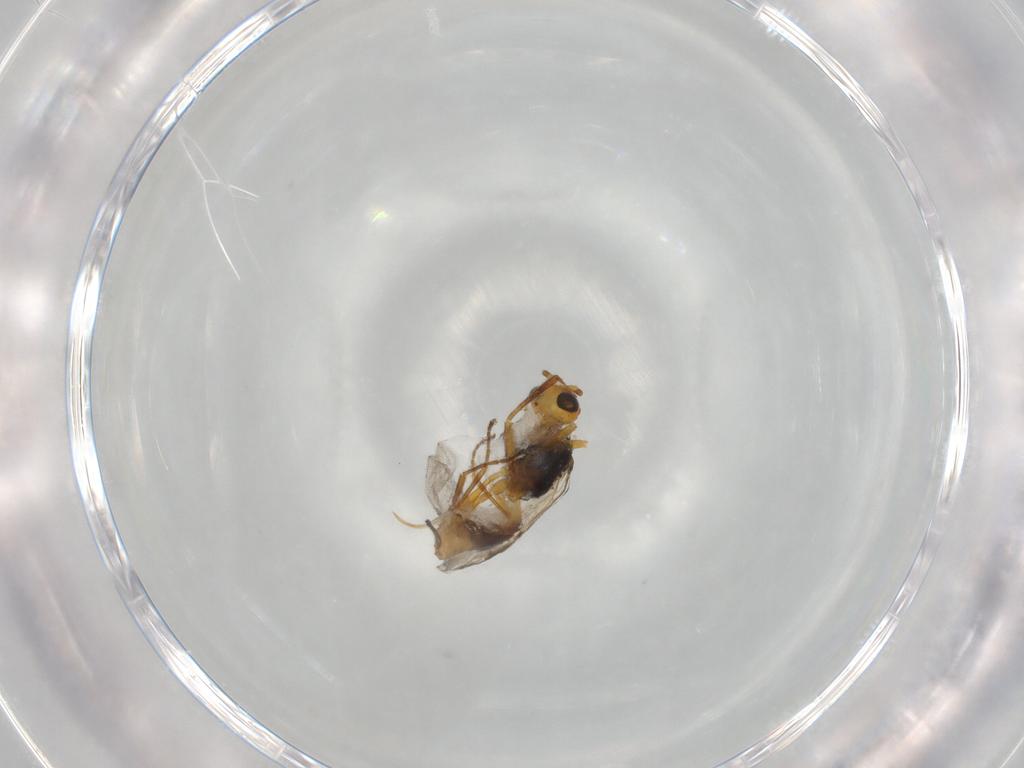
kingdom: Animalia
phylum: Arthropoda
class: Insecta
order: Hymenoptera
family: Braconidae
